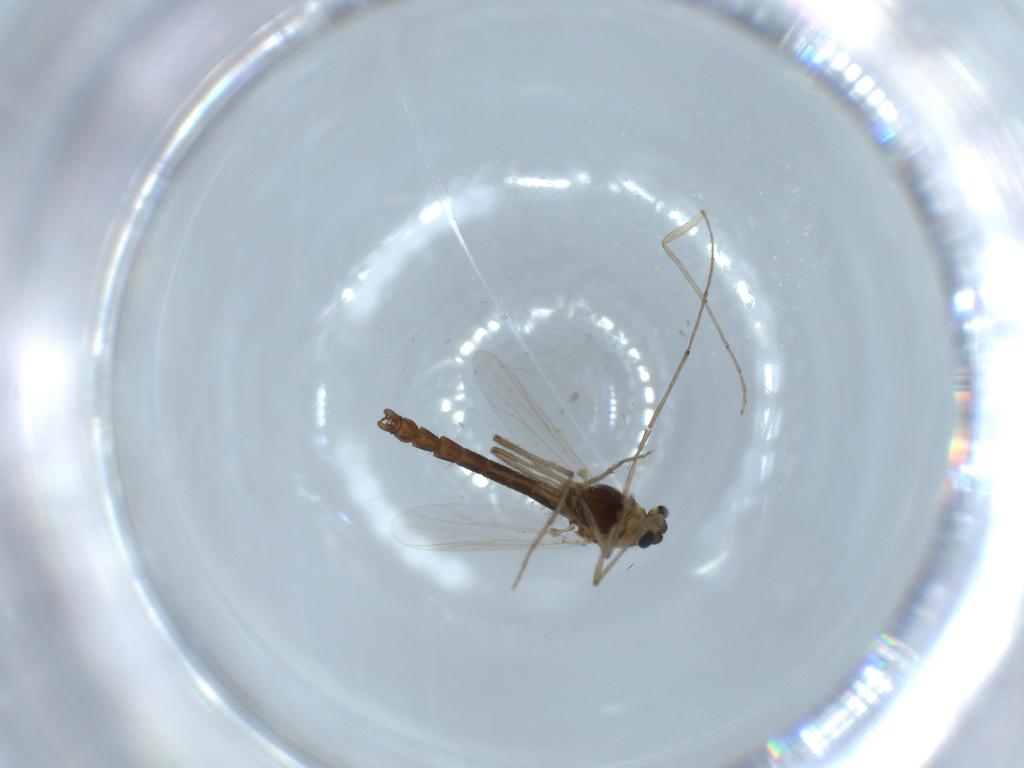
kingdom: Animalia
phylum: Arthropoda
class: Insecta
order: Diptera
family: Chironomidae
